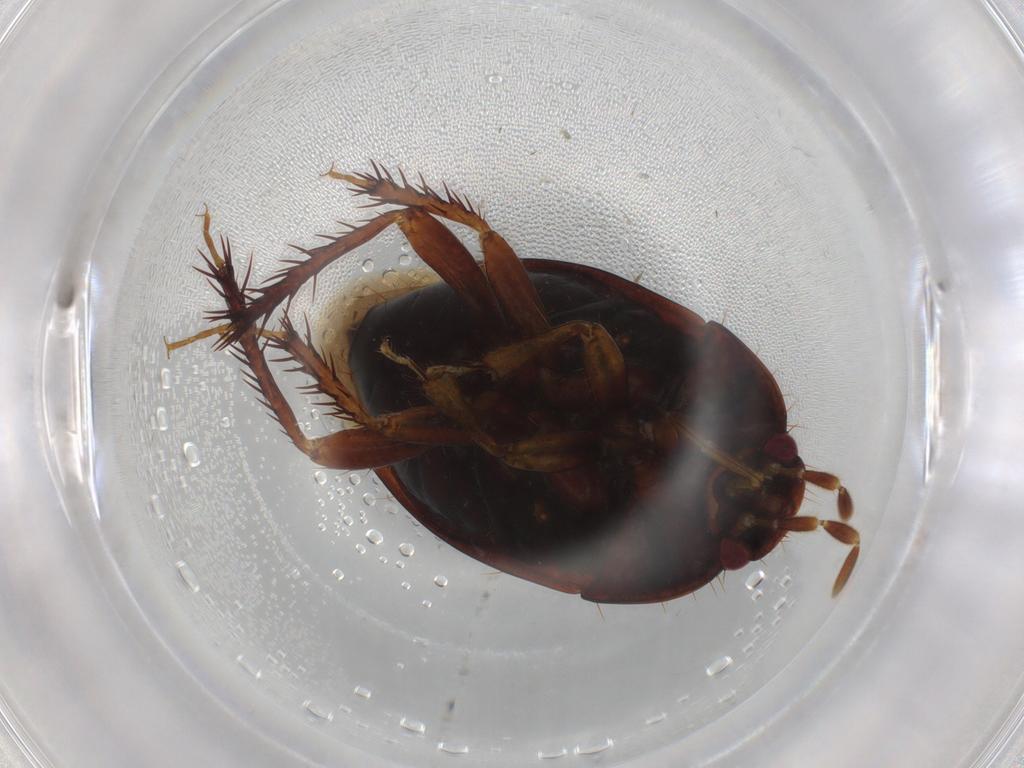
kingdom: Animalia
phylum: Arthropoda
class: Insecta
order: Hemiptera
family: Cydnidae
